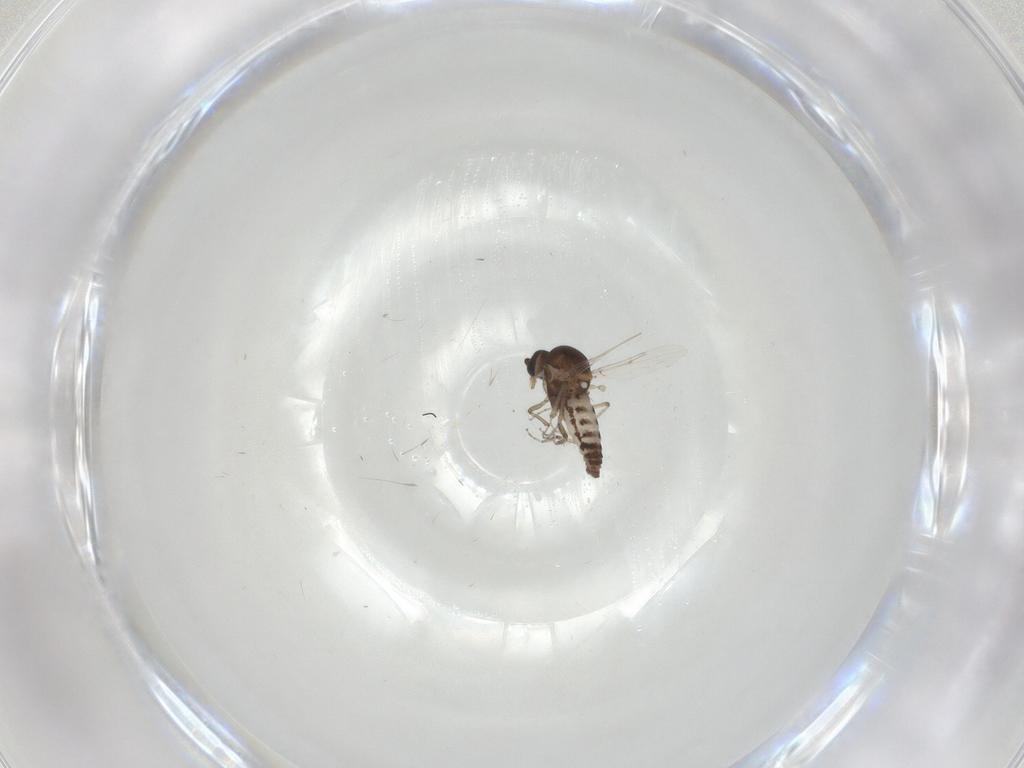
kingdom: Animalia
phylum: Arthropoda
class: Insecta
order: Diptera
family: Ceratopogonidae
